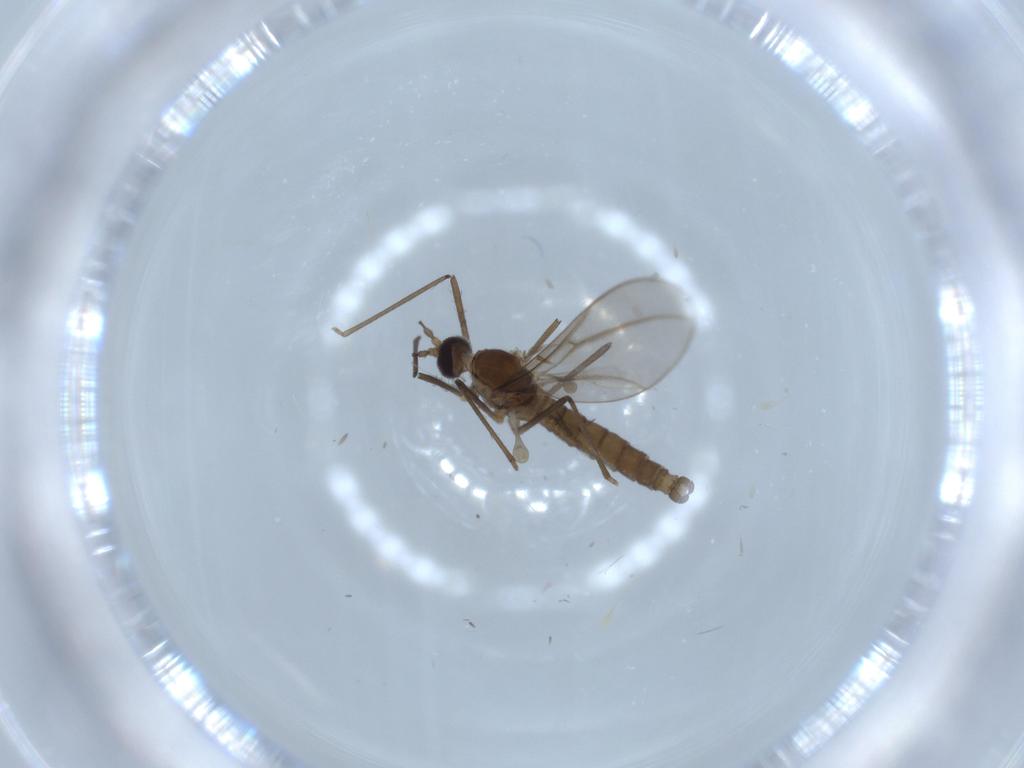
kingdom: Animalia
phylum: Arthropoda
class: Insecta
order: Diptera
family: Cecidomyiidae
